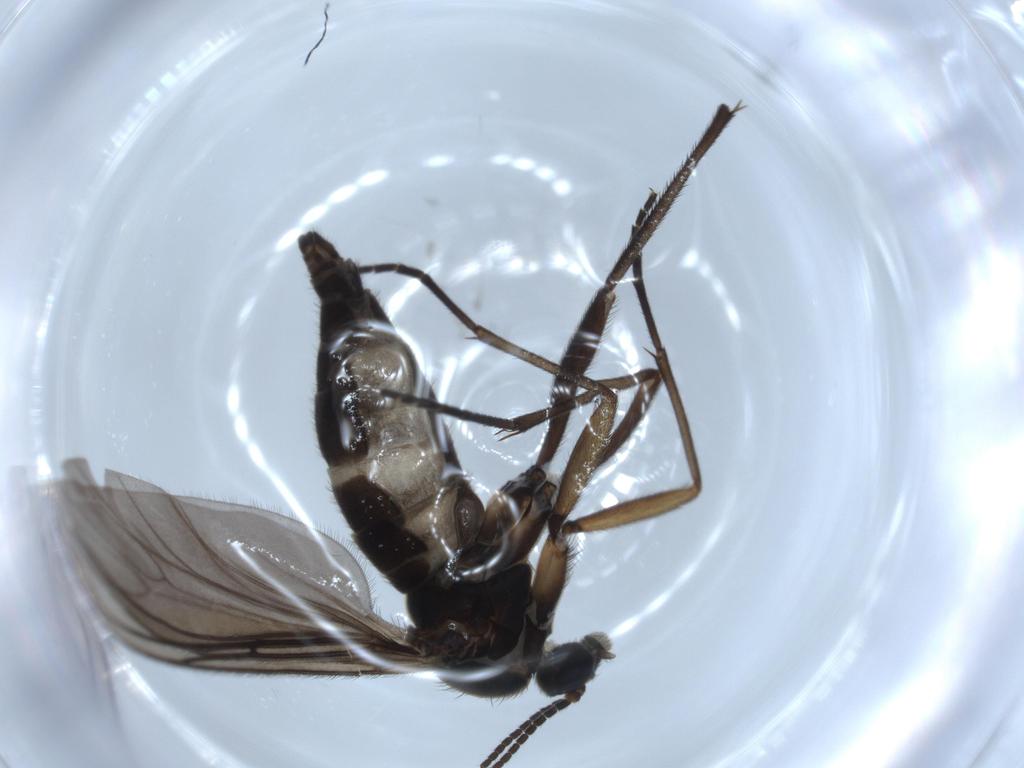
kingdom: Animalia
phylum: Arthropoda
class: Insecta
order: Diptera
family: Sciaridae
